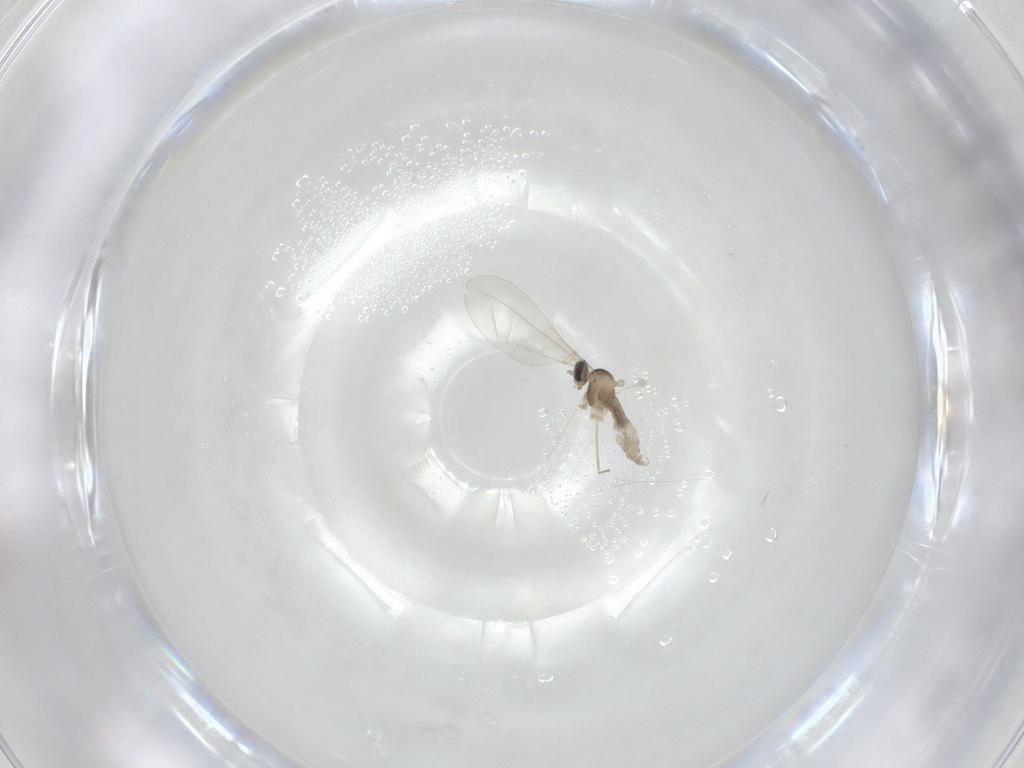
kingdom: Animalia
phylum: Arthropoda
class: Insecta
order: Diptera
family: Cecidomyiidae
